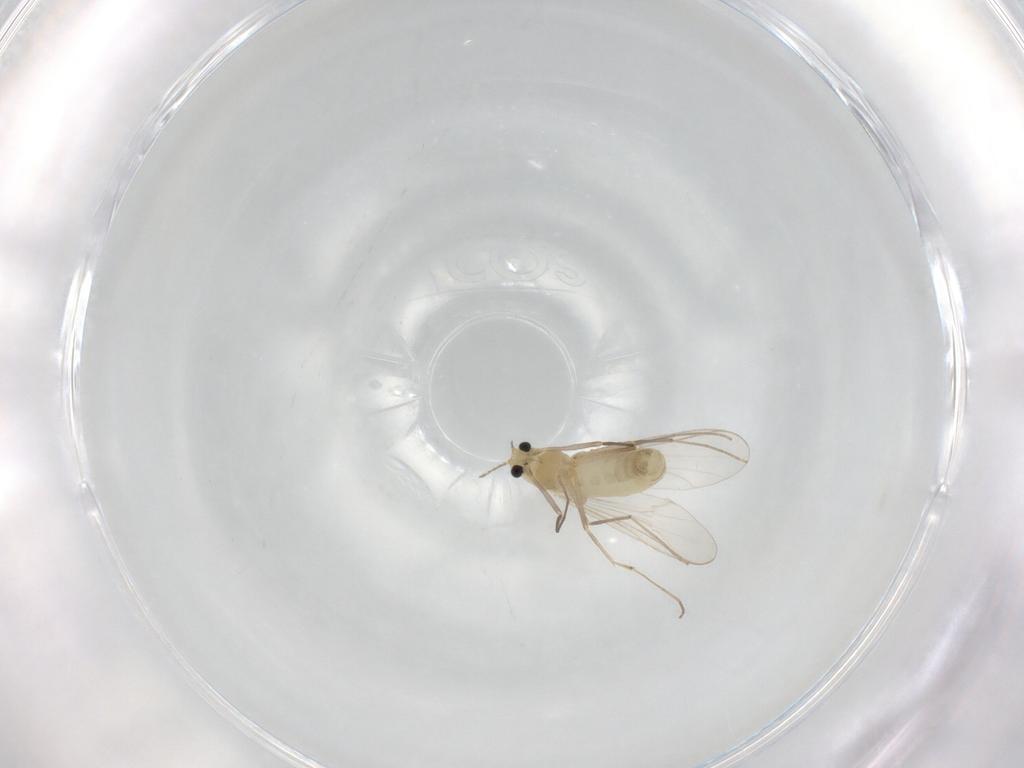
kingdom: Animalia
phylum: Arthropoda
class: Insecta
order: Diptera
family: Chironomidae
